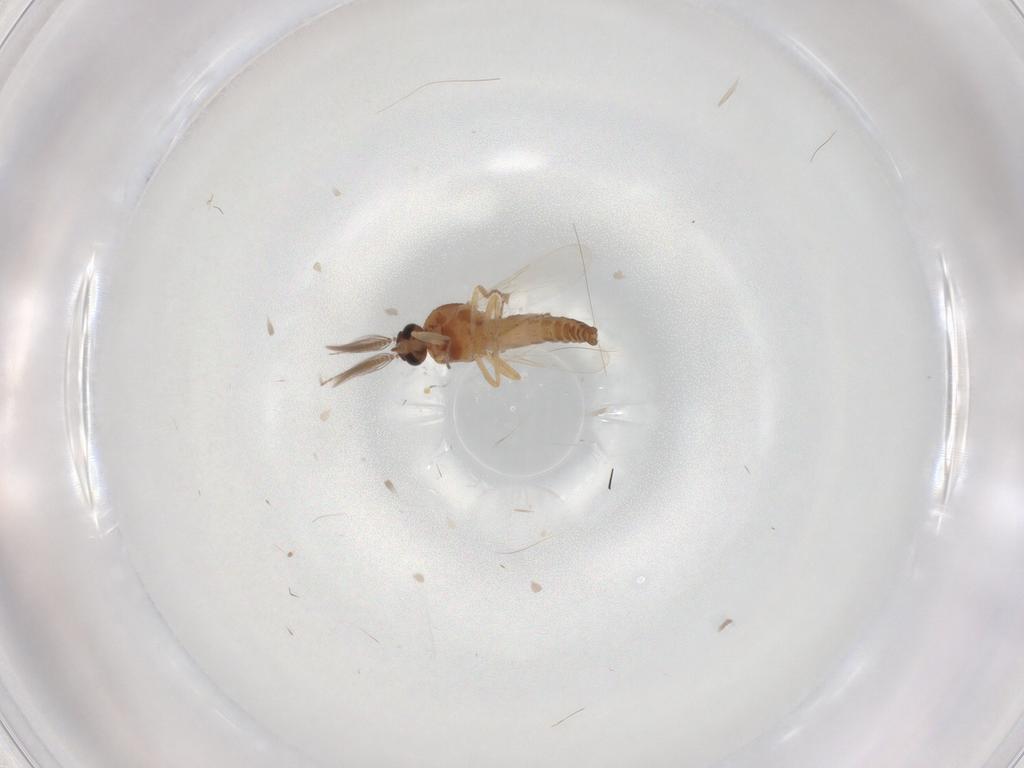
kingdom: Animalia
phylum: Arthropoda
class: Insecta
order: Diptera
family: Ceratopogonidae
